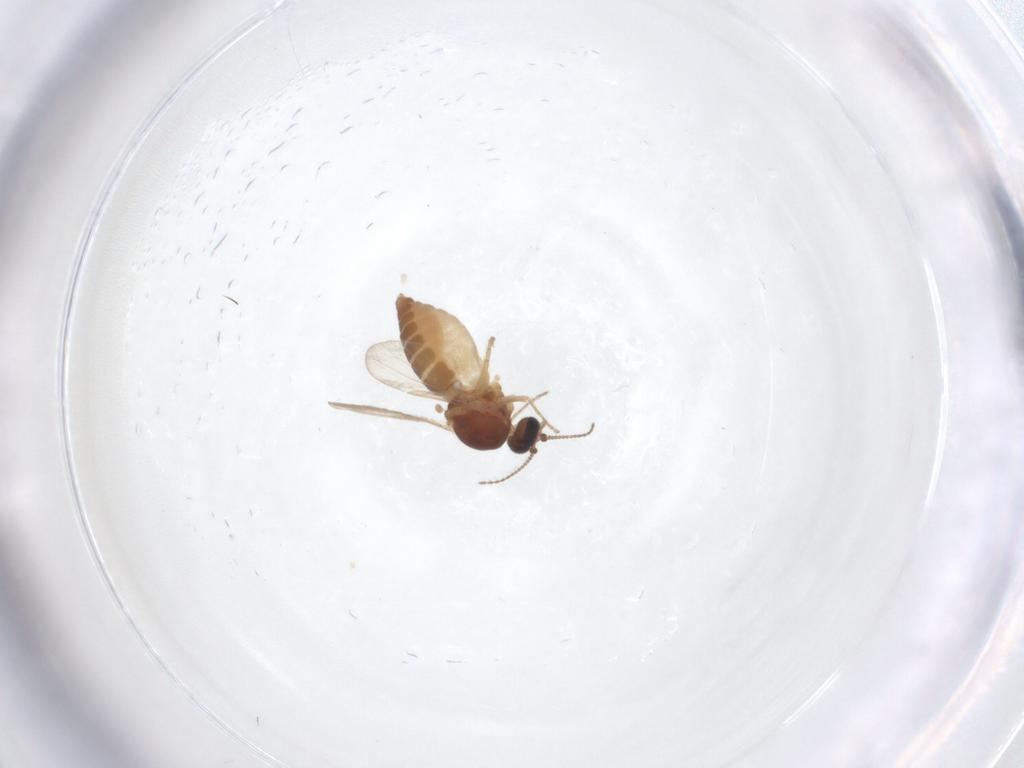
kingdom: Animalia
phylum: Arthropoda
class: Insecta
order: Diptera
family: Ceratopogonidae
